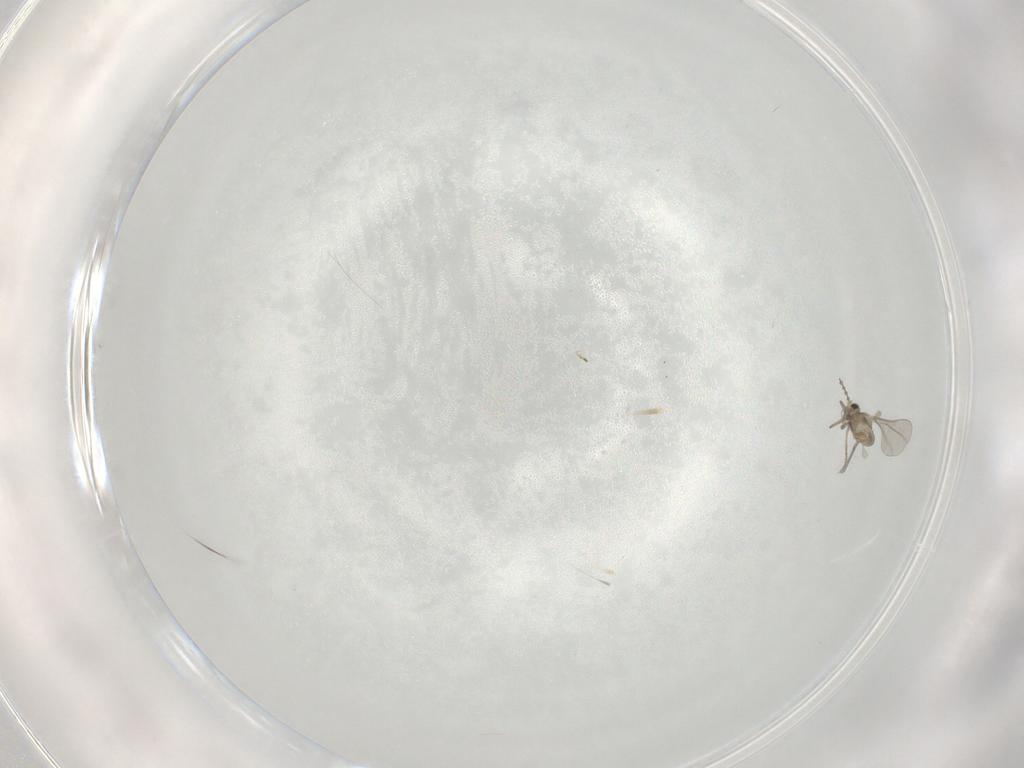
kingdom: Animalia
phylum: Arthropoda
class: Insecta
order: Diptera
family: Cecidomyiidae
